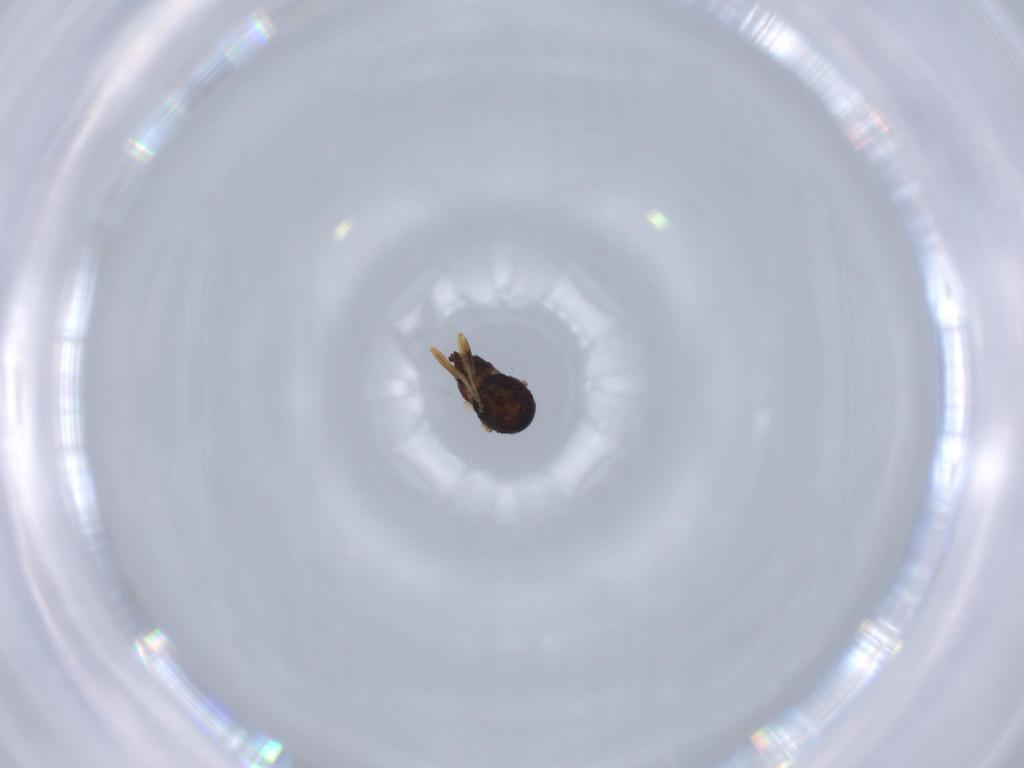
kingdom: Animalia
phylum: Arthropoda
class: Insecta
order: Diptera
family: Chloropidae
